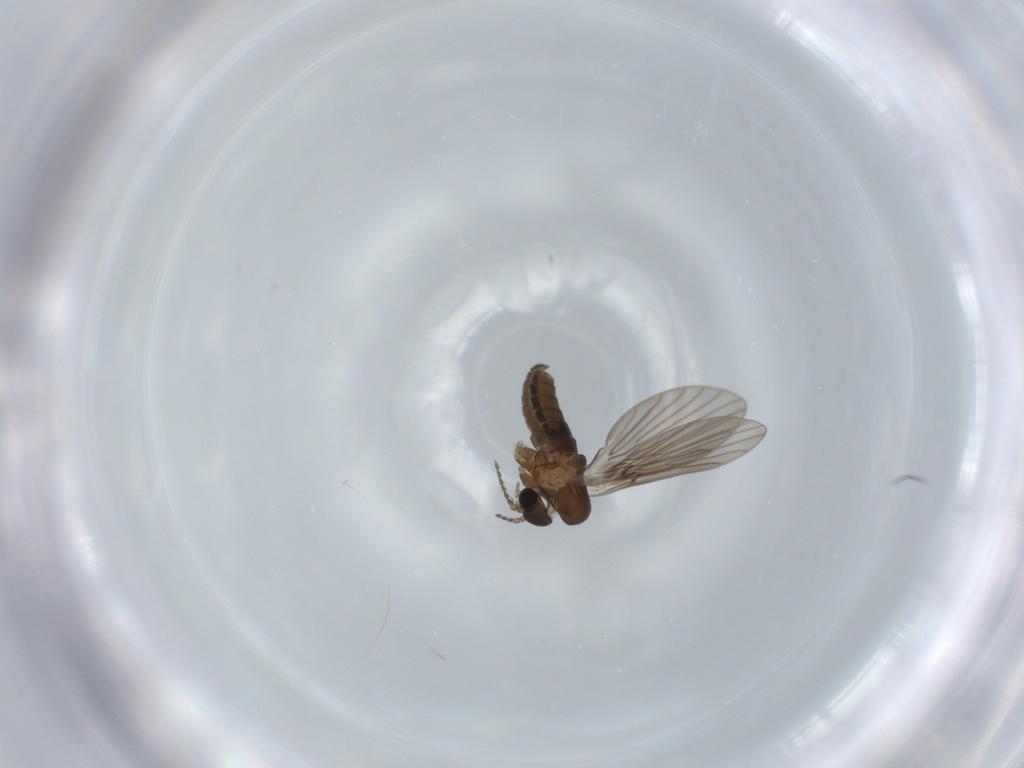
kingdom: Animalia
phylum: Arthropoda
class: Insecta
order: Diptera
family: Psychodidae
